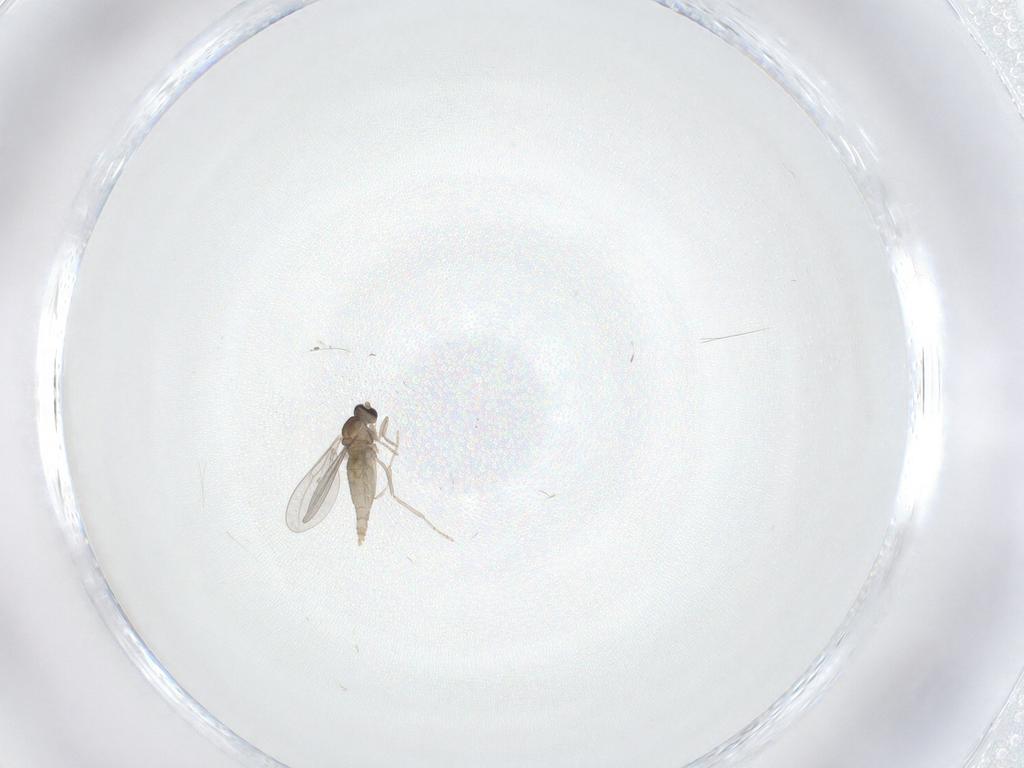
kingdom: Animalia
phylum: Arthropoda
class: Insecta
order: Diptera
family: Cecidomyiidae
